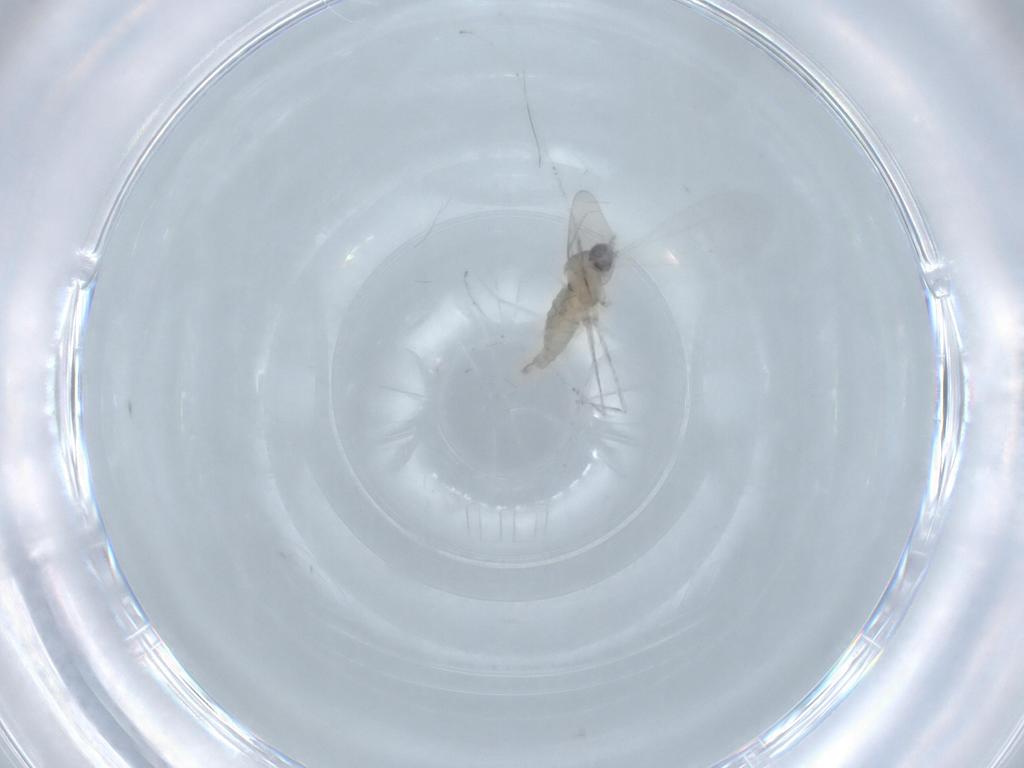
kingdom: Animalia
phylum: Arthropoda
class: Insecta
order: Diptera
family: Cecidomyiidae
